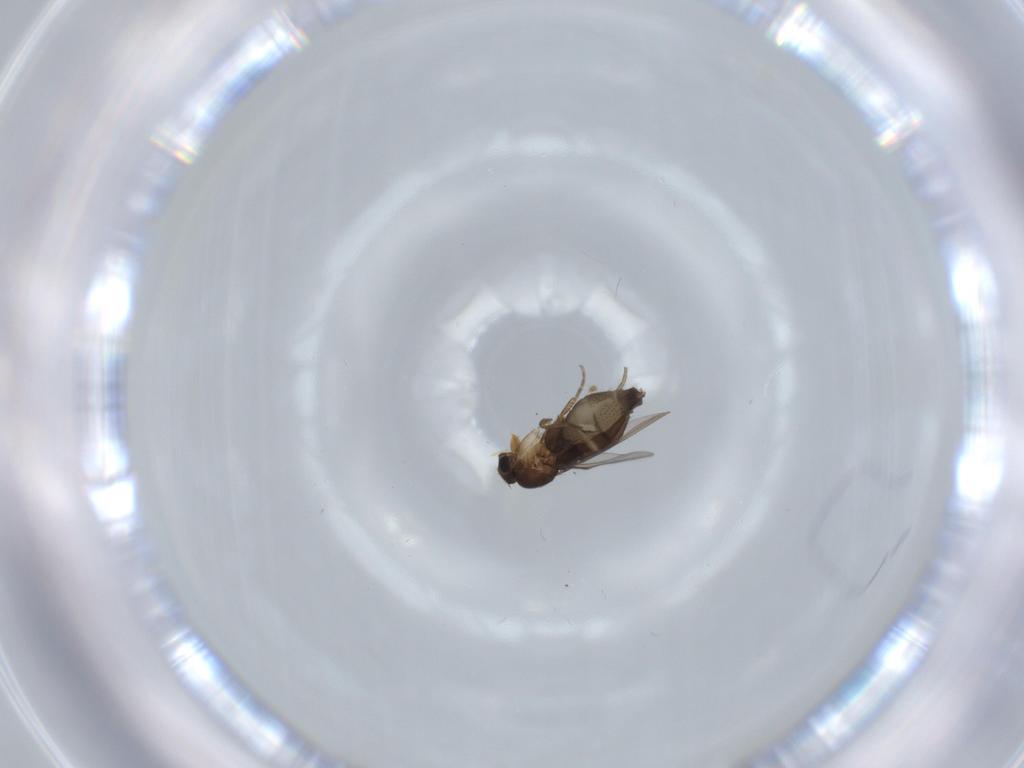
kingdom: Animalia
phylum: Arthropoda
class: Insecta
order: Diptera
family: Phoridae
